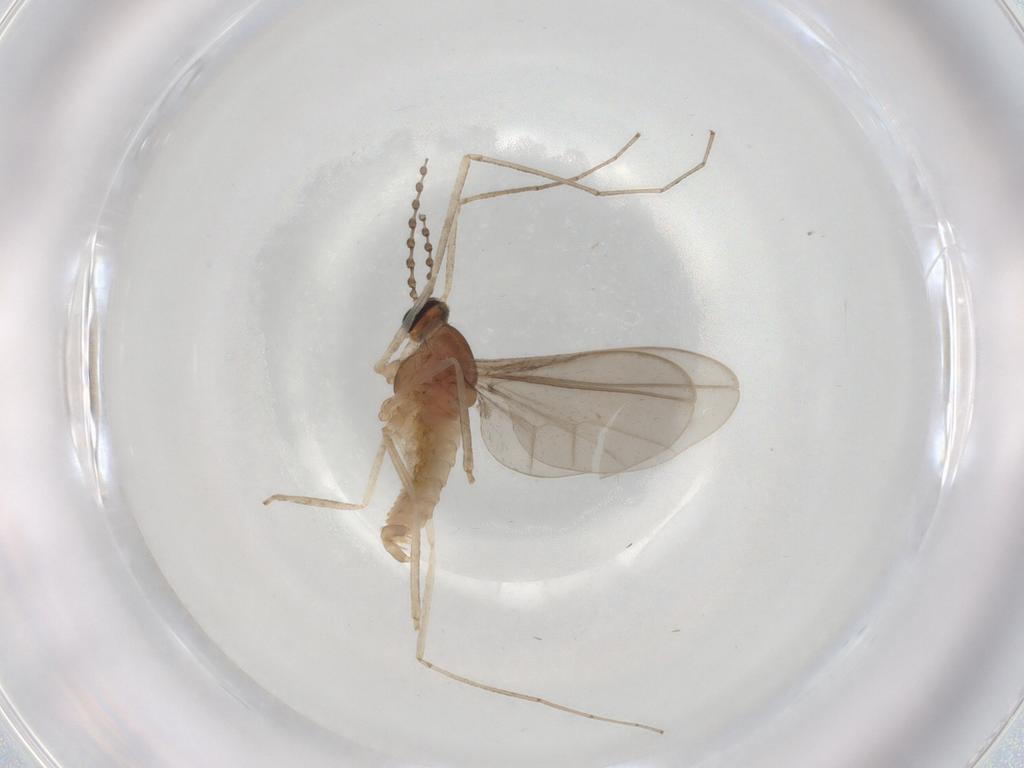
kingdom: Animalia
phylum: Arthropoda
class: Insecta
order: Diptera
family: Cecidomyiidae
